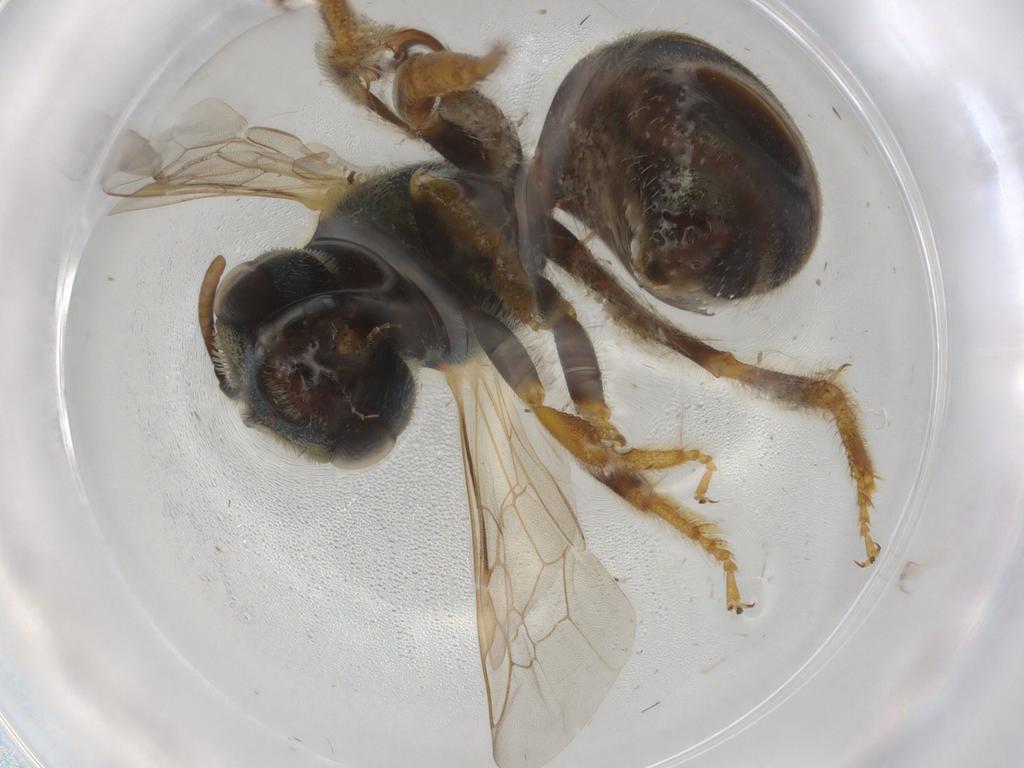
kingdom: Animalia
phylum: Arthropoda
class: Insecta
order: Hymenoptera
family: Halictidae
